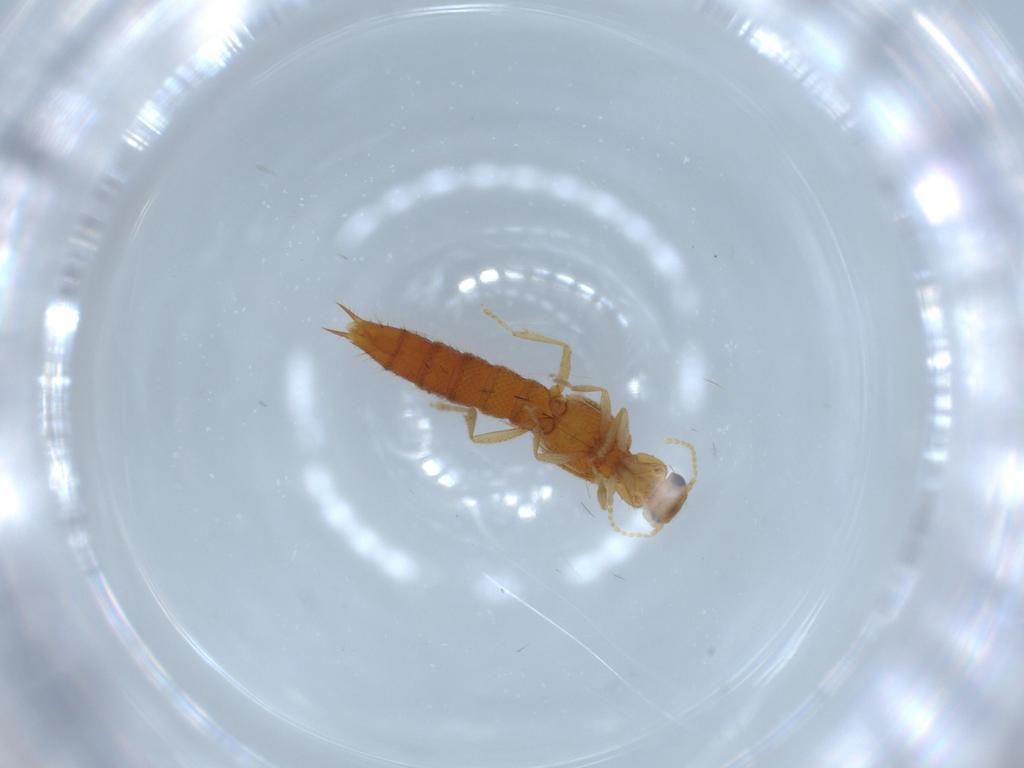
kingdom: Animalia
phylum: Arthropoda
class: Insecta
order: Coleoptera
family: Staphylinidae
